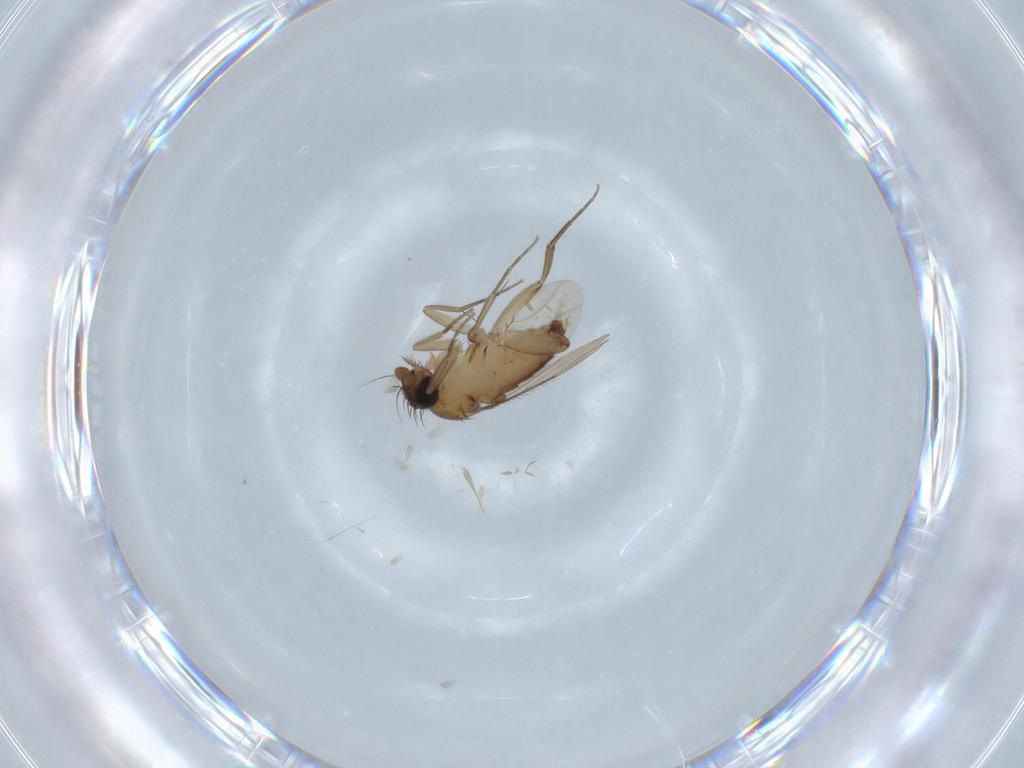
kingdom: Animalia
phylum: Arthropoda
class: Insecta
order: Diptera
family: Phoridae
